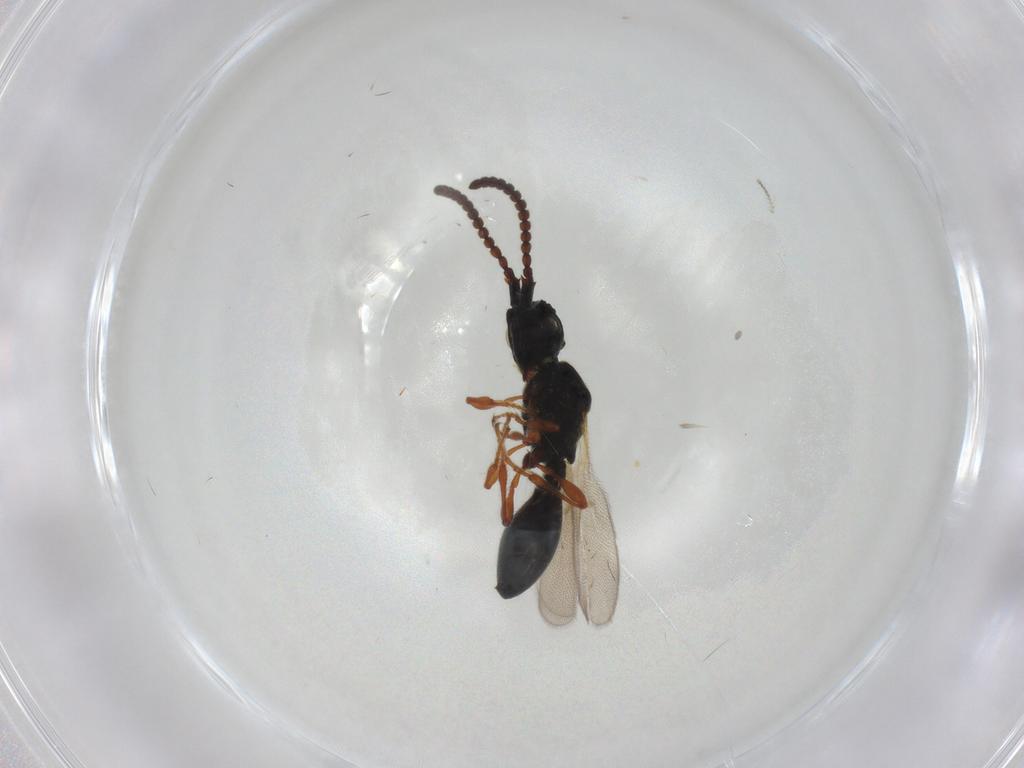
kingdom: Animalia
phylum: Arthropoda
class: Insecta
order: Hymenoptera
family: Diapriidae
